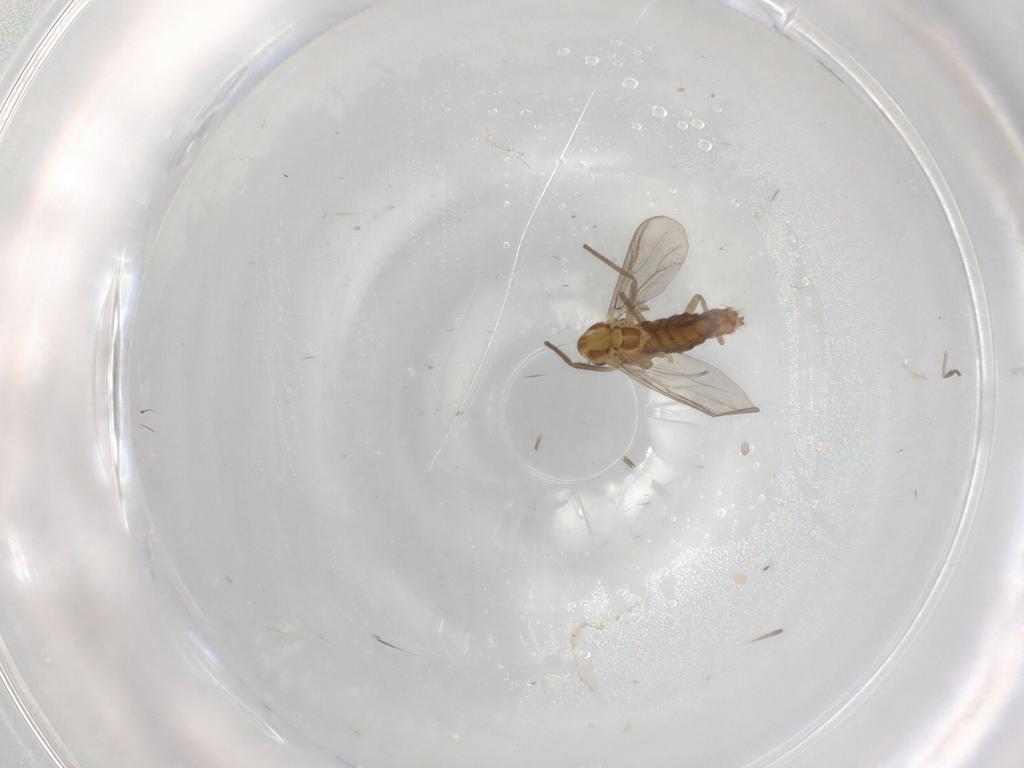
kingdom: Animalia
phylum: Arthropoda
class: Insecta
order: Diptera
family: Chironomidae
